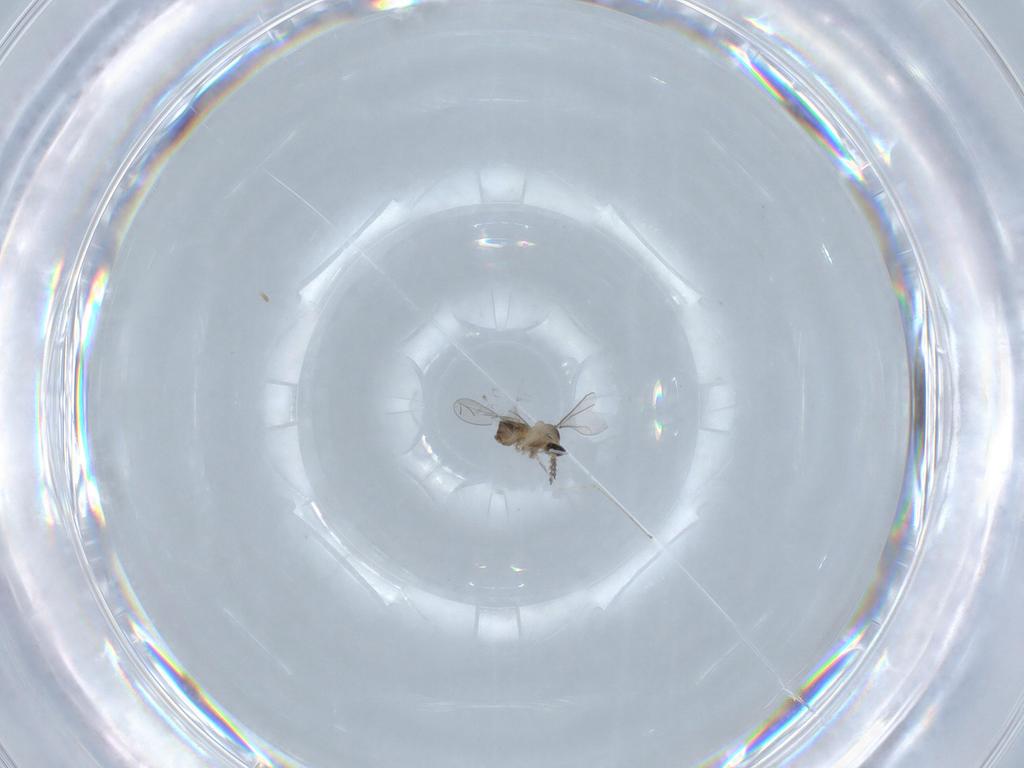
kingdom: Animalia
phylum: Arthropoda
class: Insecta
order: Diptera
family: Cecidomyiidae
